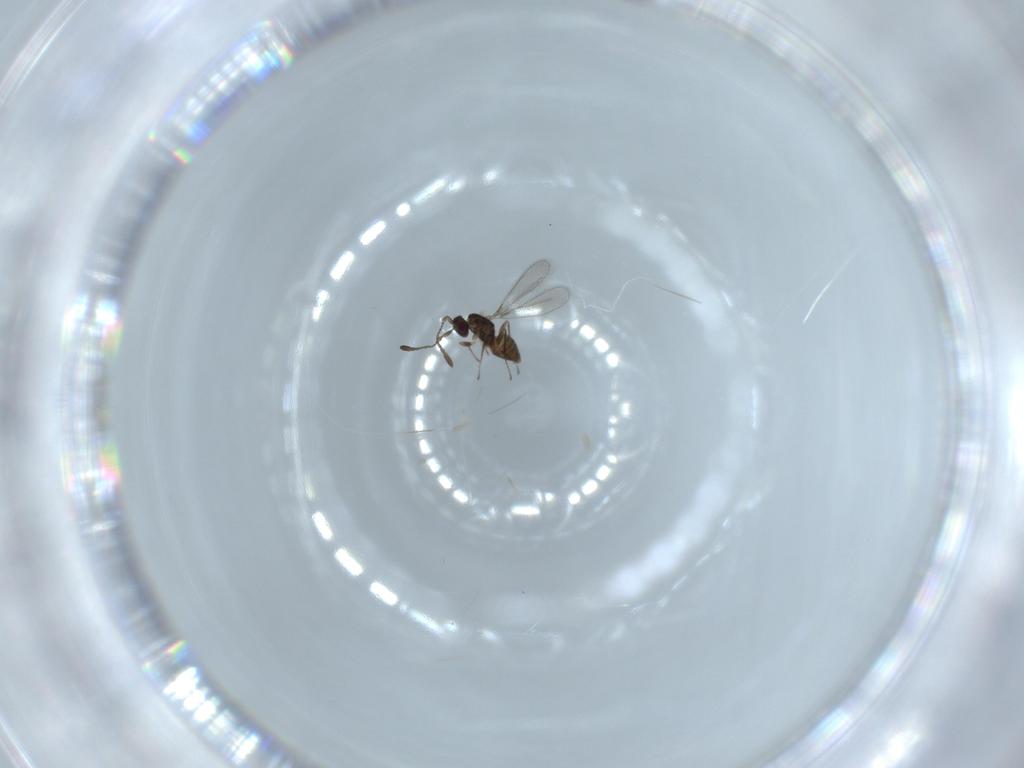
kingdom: Animalia
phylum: Arthropoda
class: Insecta
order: Hymenoptera
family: Mymaridae
